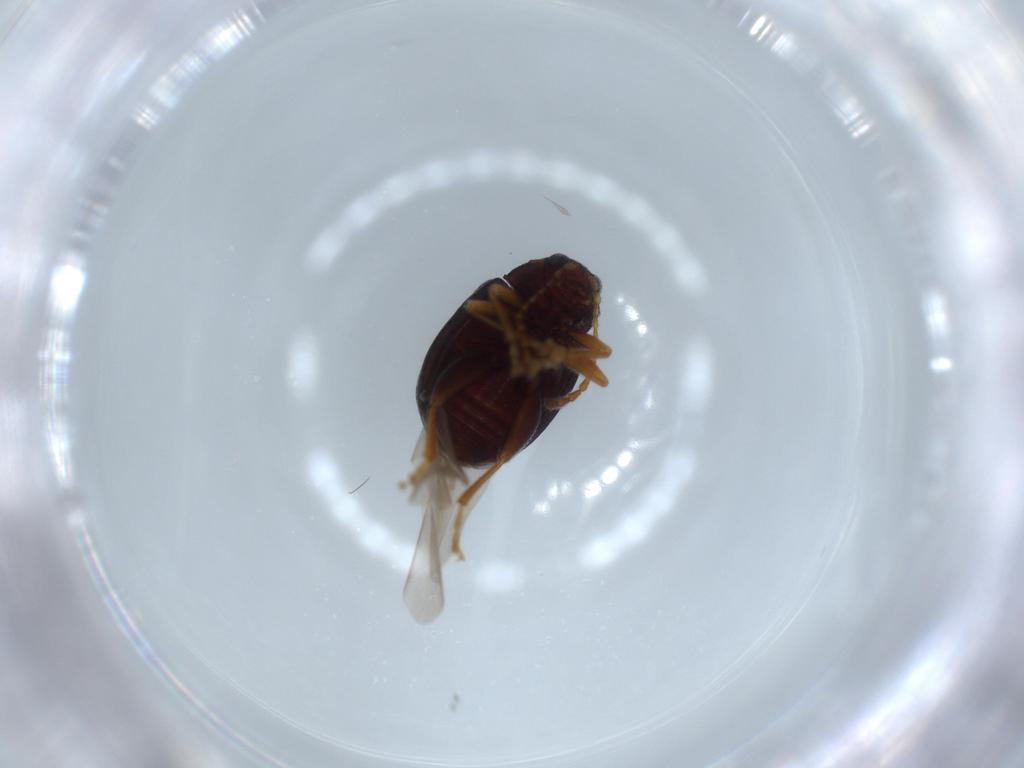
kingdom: Animalia
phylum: Arthropoda
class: Insecta
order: Coleoptera
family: Chrysomelidae
